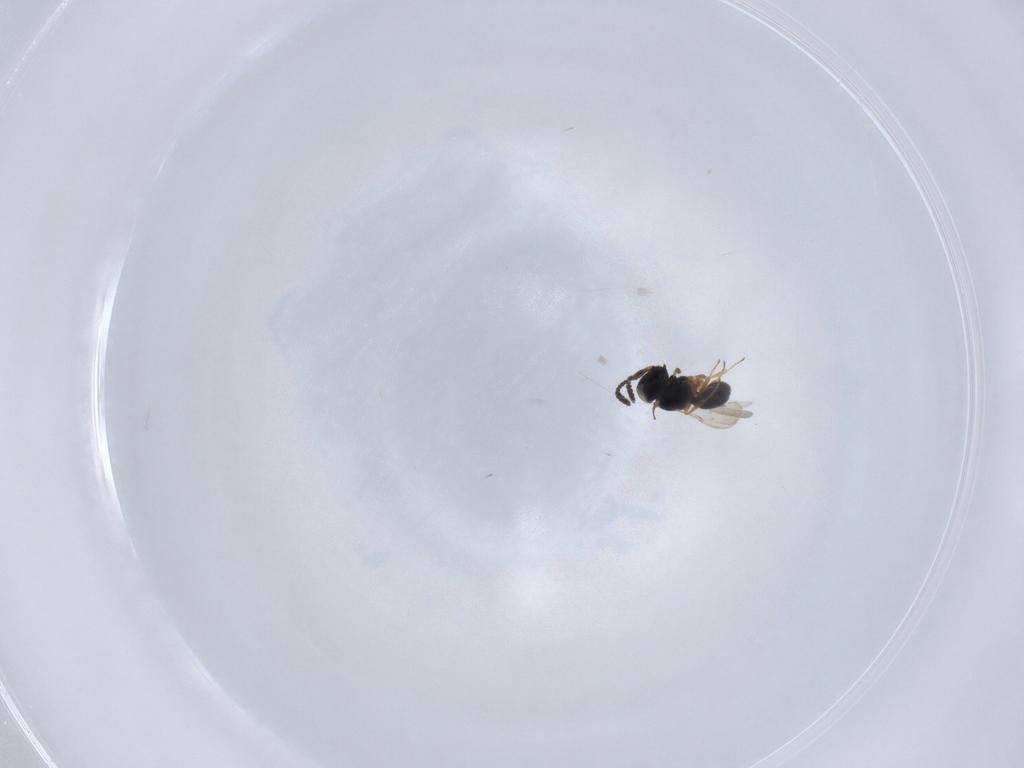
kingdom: Animalia
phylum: Arthropoda
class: Insecta
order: Hymenoptera
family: Scelionidae
